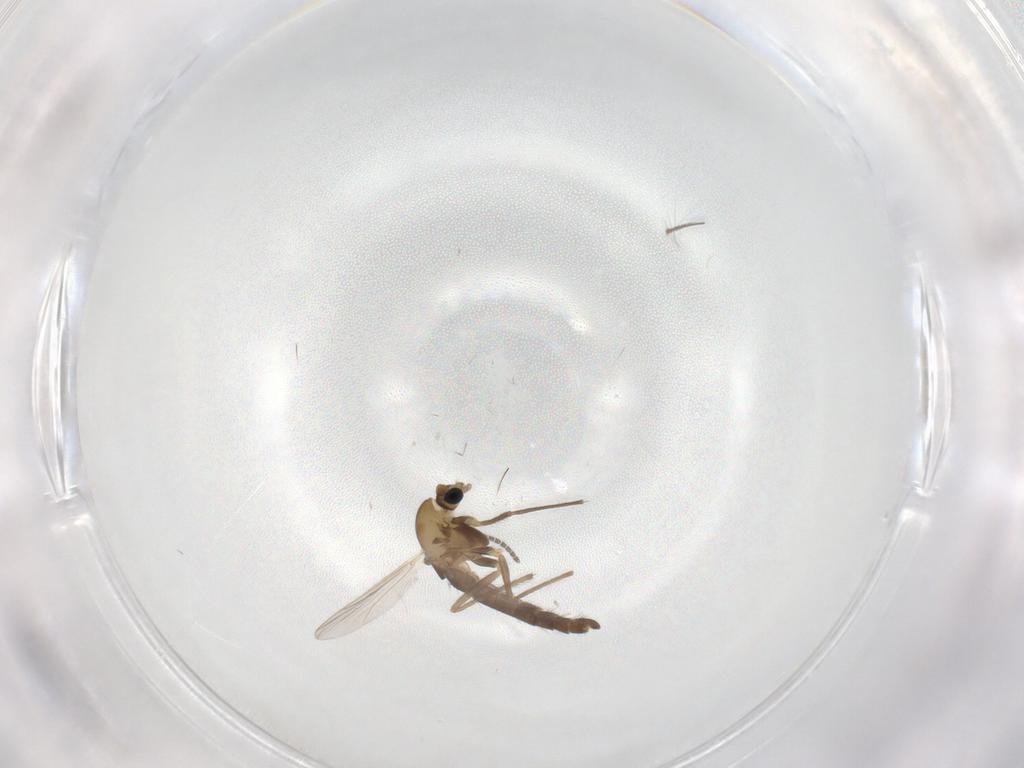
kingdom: Animalia
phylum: Arthropoda
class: Insecta
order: Diptera
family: Chironomidae
